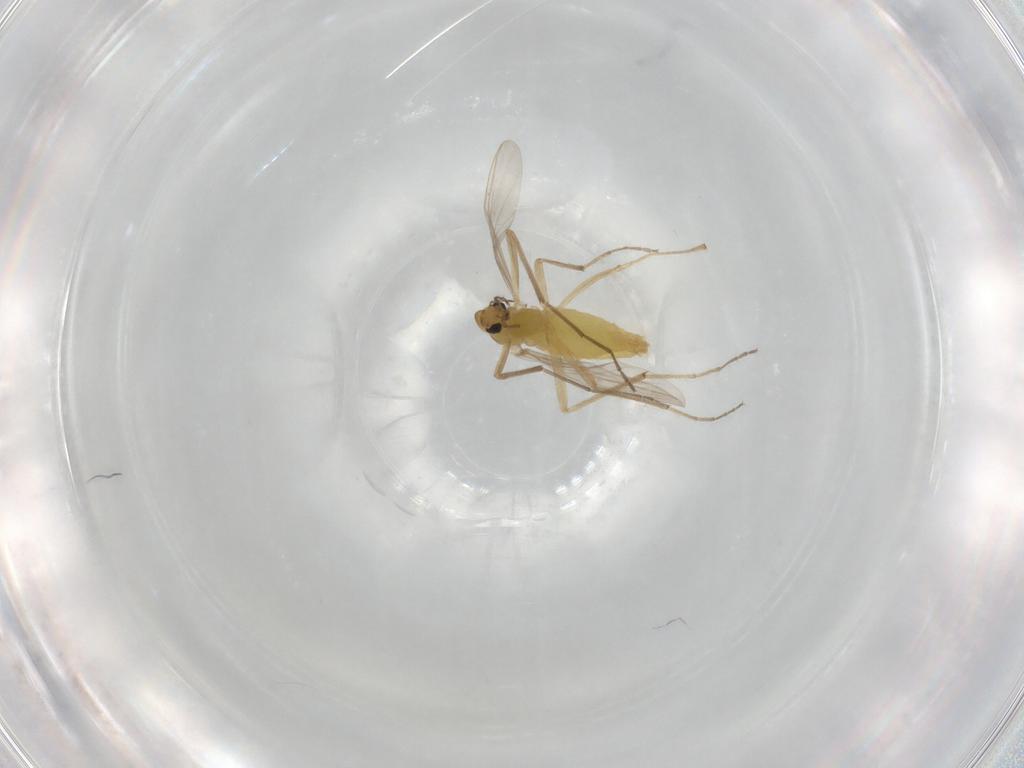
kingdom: Animalia
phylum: Arthropoda
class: Insecta
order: Diptera
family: Chironomidae
